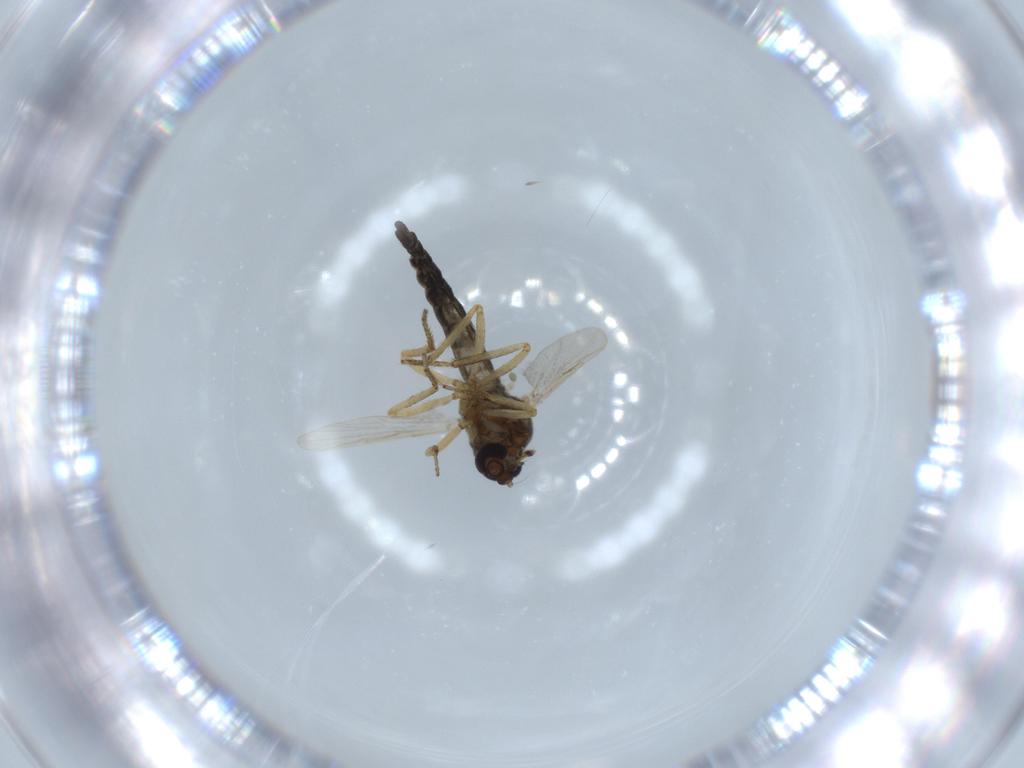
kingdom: Animalia
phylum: Arthropoda
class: Insecta
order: Diptera
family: Ceratopogonidae
